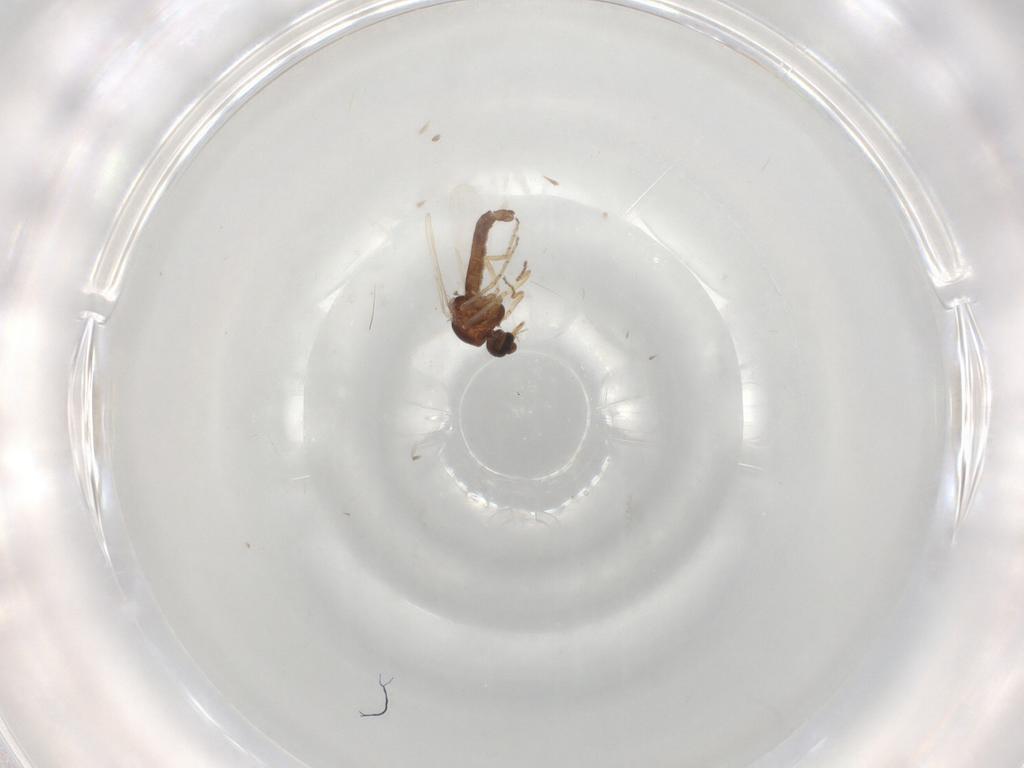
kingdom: Animalia
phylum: Arthropoda
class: Insecta
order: Diptera
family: Ceratopogonidae
